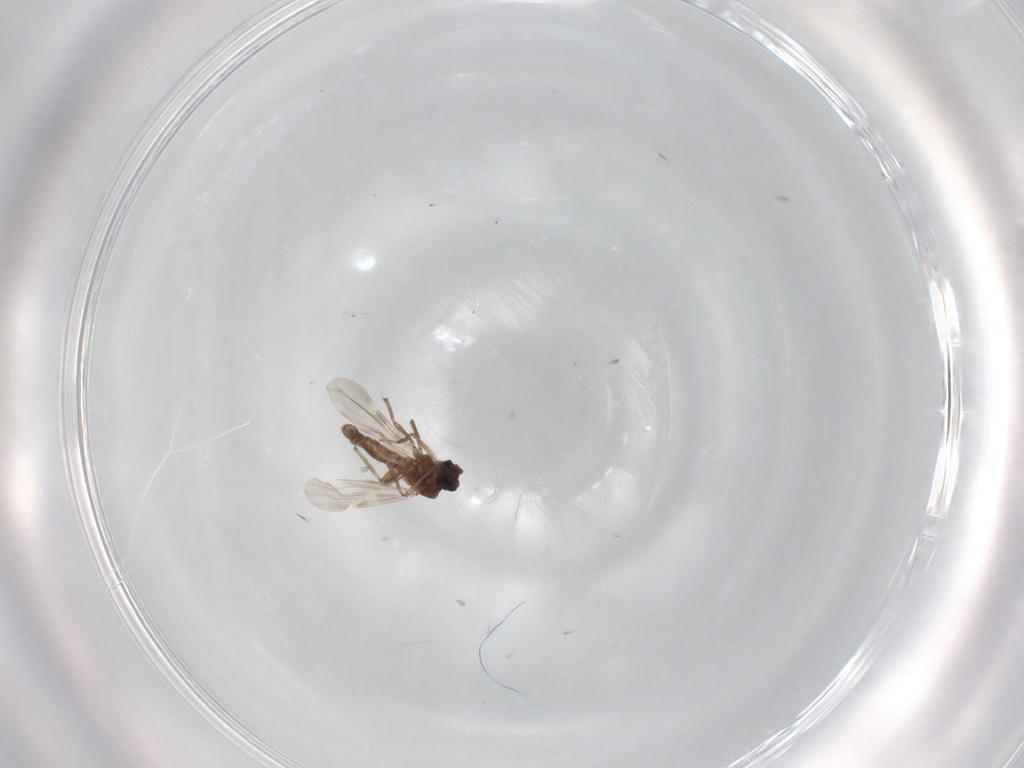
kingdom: Animalia
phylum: Arthropoda
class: Insecta
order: Diptera
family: Ceratopogonidae
